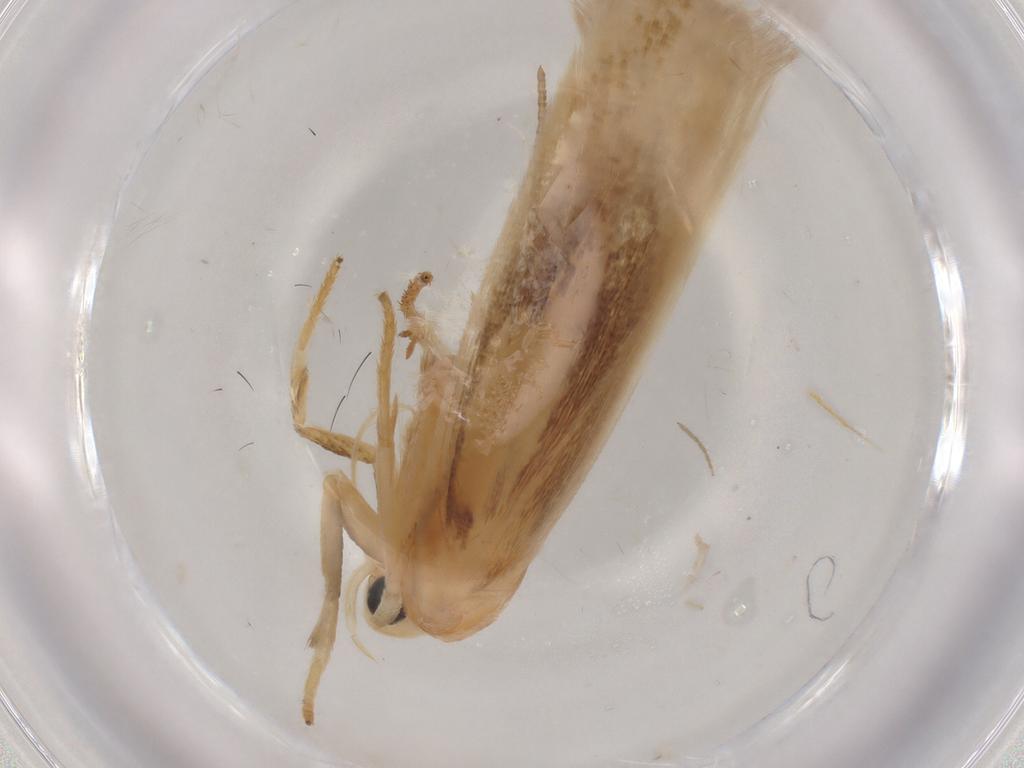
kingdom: Animalia
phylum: Arthropoda
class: Insecta
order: Lepidoptera
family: Geometridae
